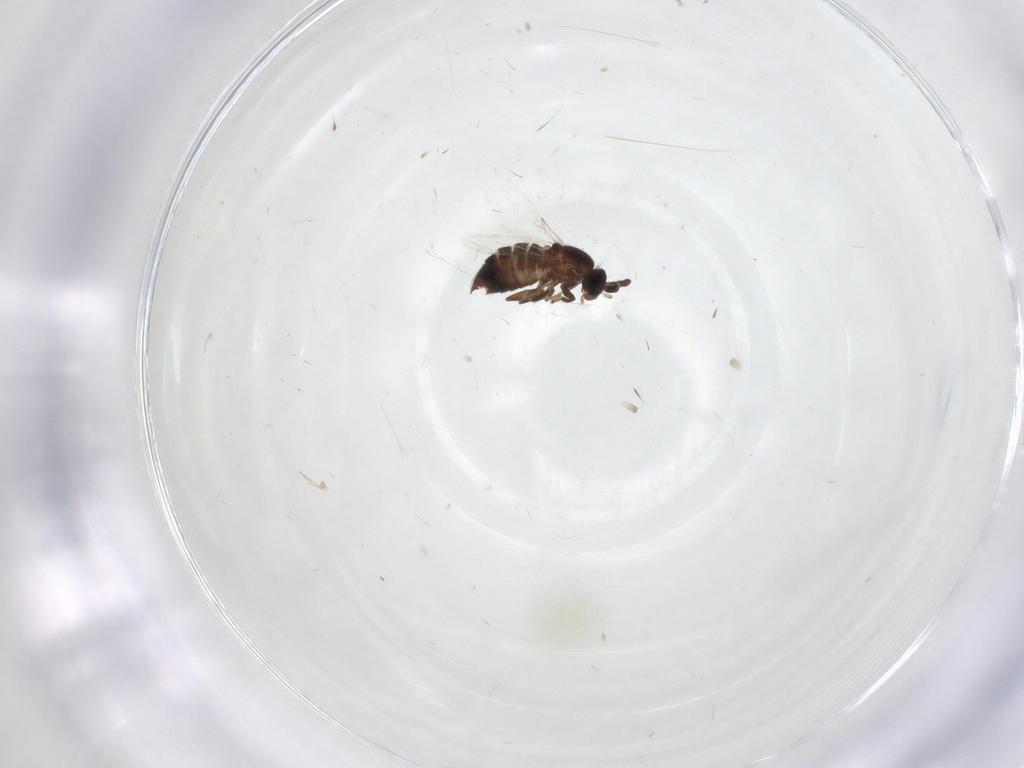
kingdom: Animalia
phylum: Arthropoda
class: Insecta
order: Diptera
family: Scatopsidae
